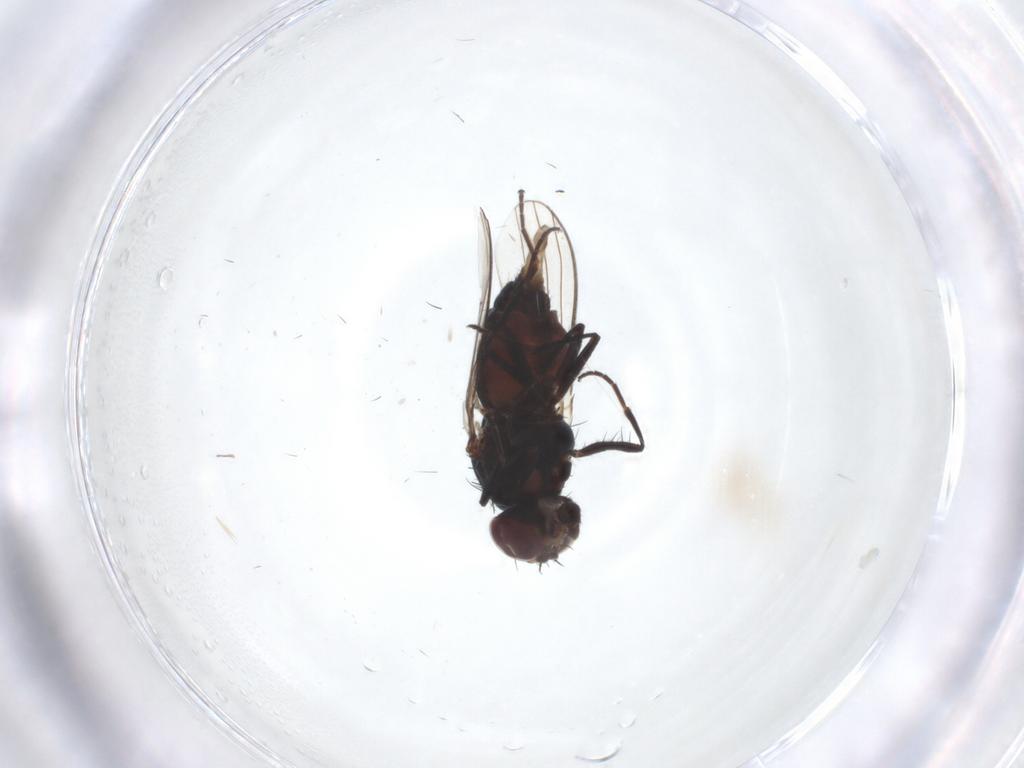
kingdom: Animalia
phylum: Arthropoda
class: Insecta
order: Diptera
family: Carnidae
